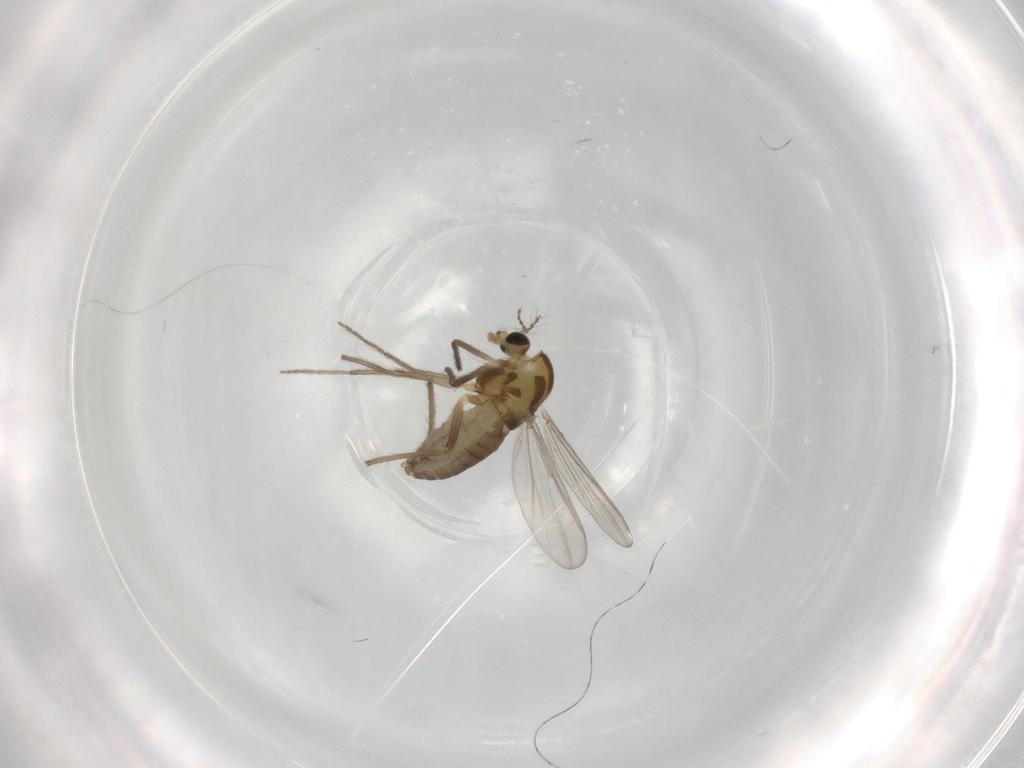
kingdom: Animalia
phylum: Arthropoda
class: Insecta
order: Diptera
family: Chironomidae
